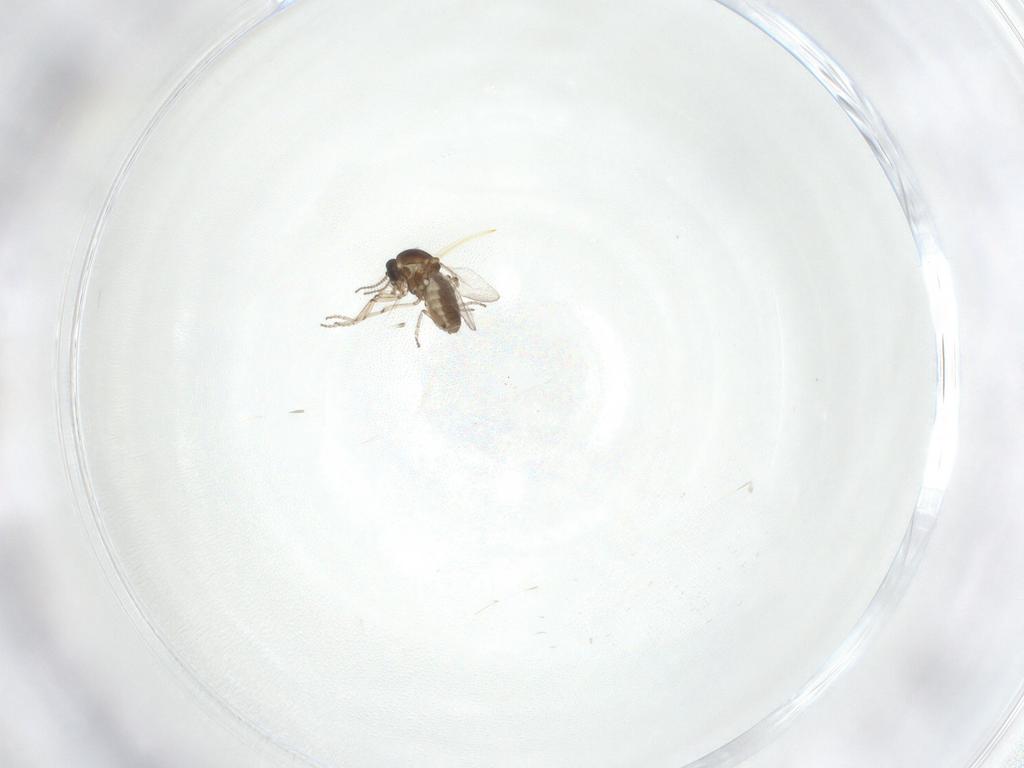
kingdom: Animalia
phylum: Arthropoda
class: Insecta
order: Diptera
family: Ceratopogonidae
